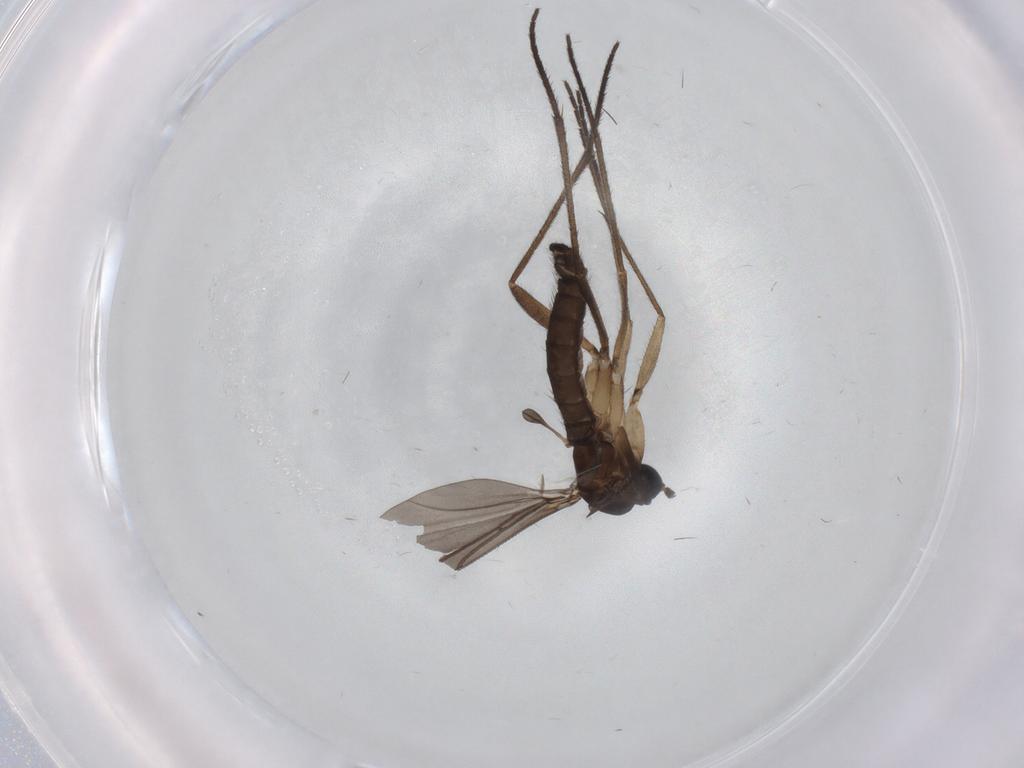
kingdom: Animalia
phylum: Arthropoda
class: Insecta
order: Diptera
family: Sciaridae
